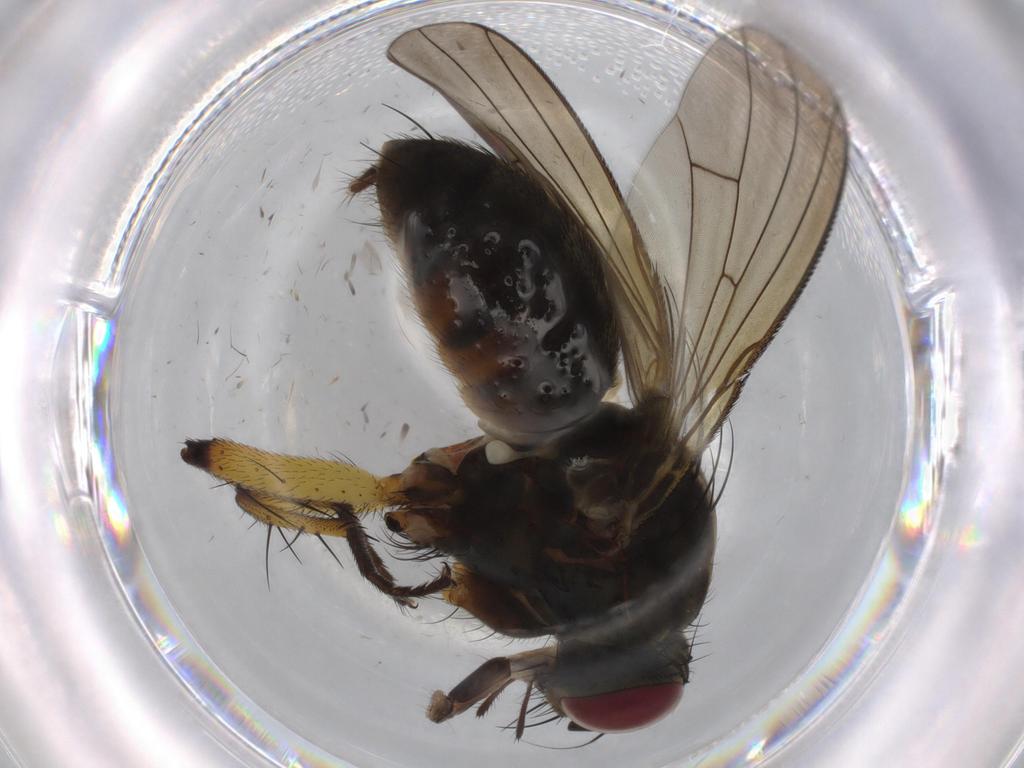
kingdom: Animalia
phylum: Arthropoda
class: Insecta
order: Diptera
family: Muscidae
